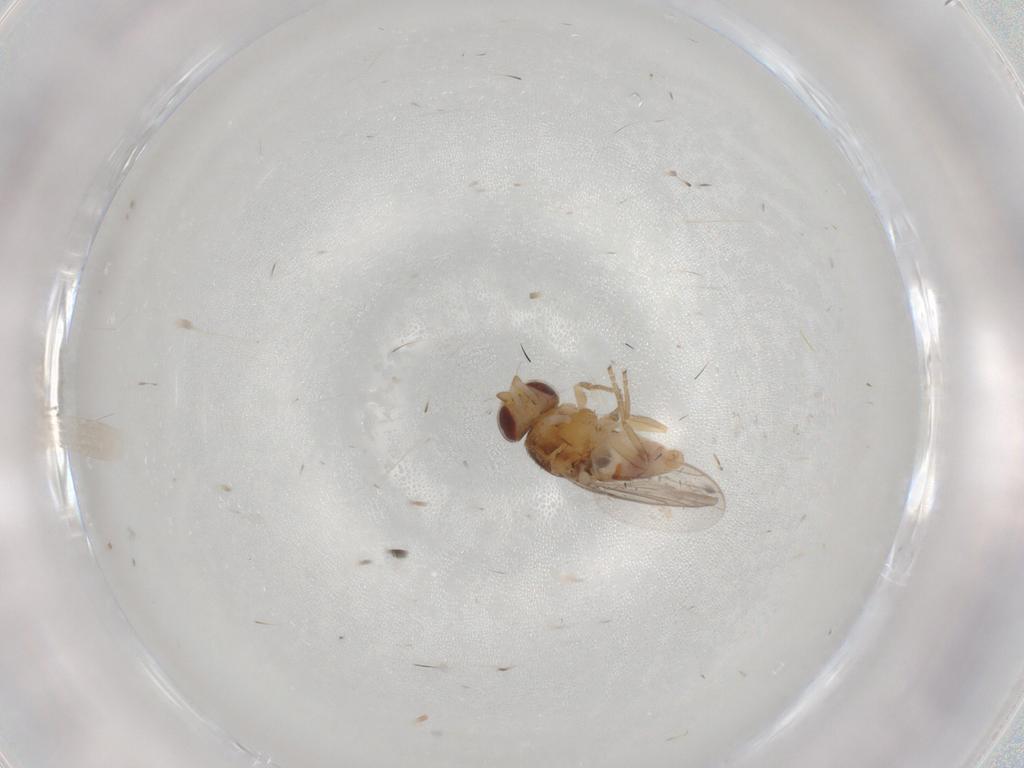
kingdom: Animalia
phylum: Arthropoda
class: Insecta
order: Diptera
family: Chloropidae
